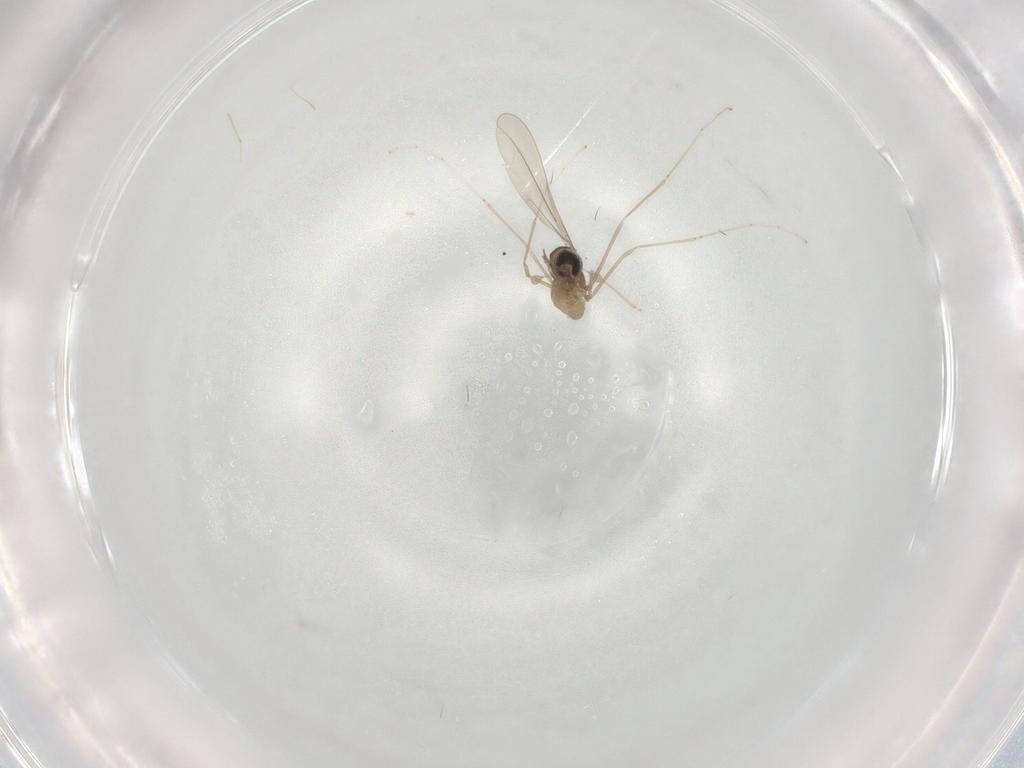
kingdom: Animalia
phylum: Arthropoda
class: Insecta
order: Diptera
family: Cecidomyiidae
